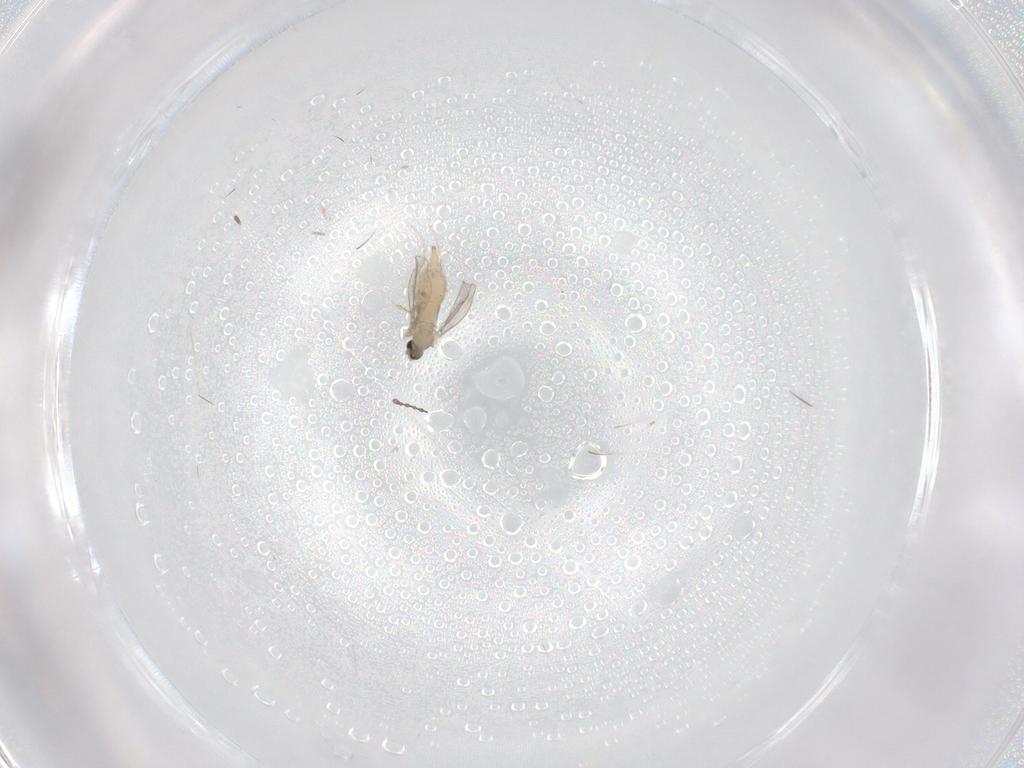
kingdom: Animalia
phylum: Arthropoda
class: Insecta
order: Diptera
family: Cecidomyiidae
